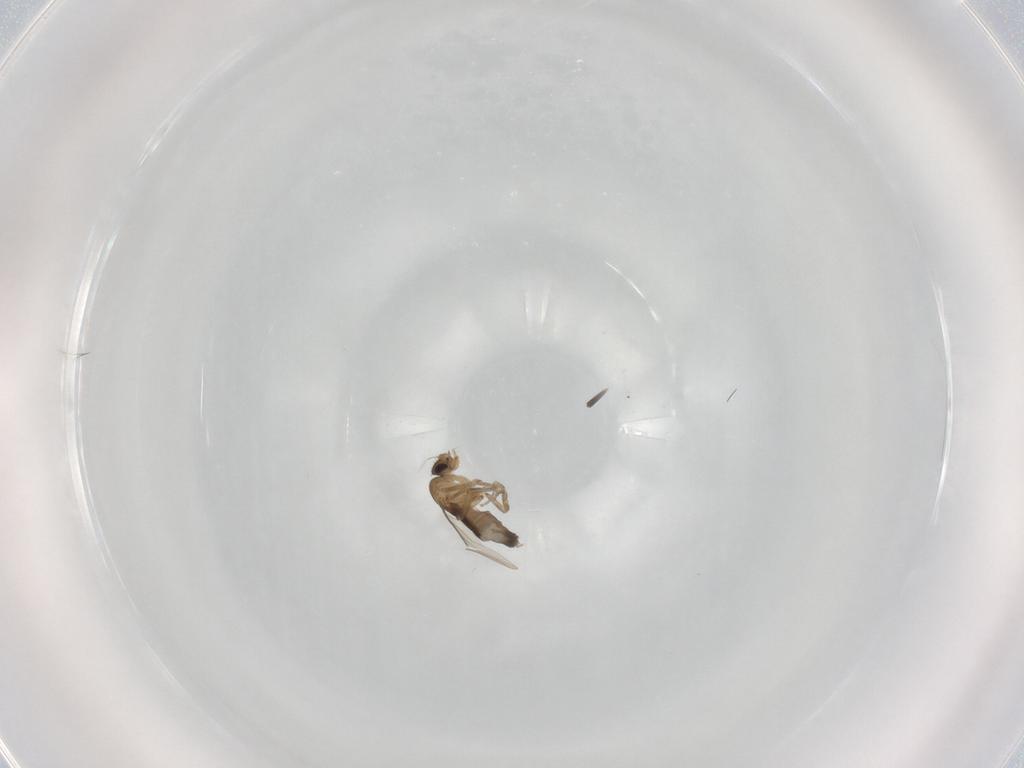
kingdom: Animalia
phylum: Arthropoda
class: Insecta
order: Diptera
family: Phoridae
